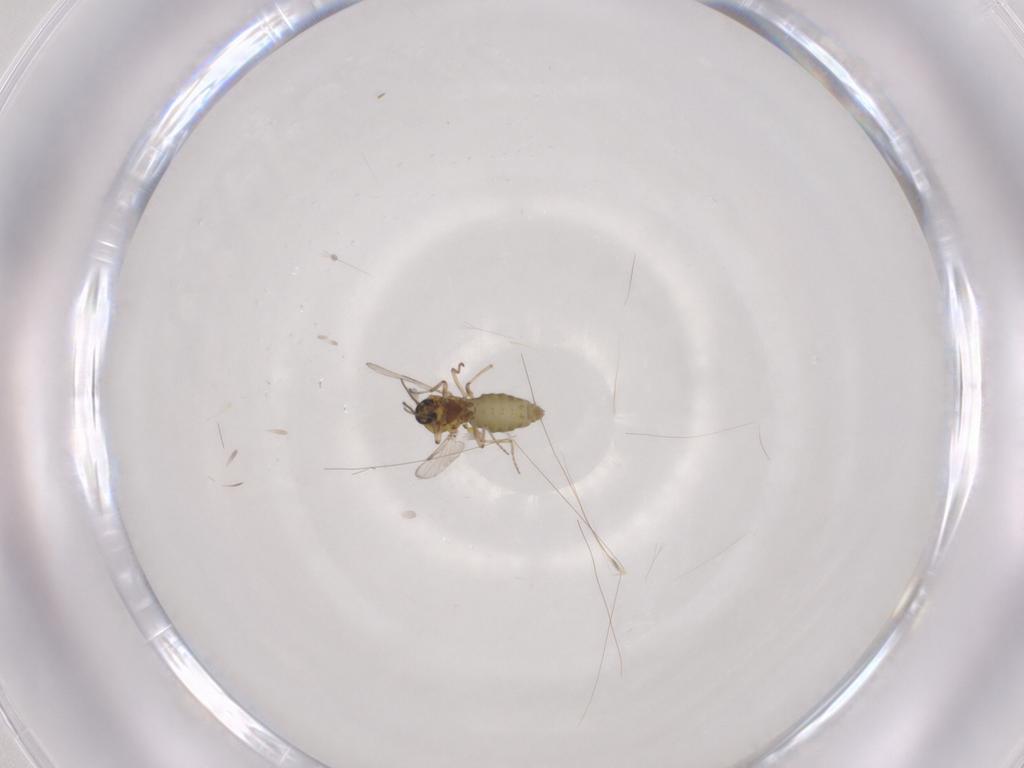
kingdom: Animalia
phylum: Arthropoda
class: Insecta
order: Diptera
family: Ceratopogonidae
